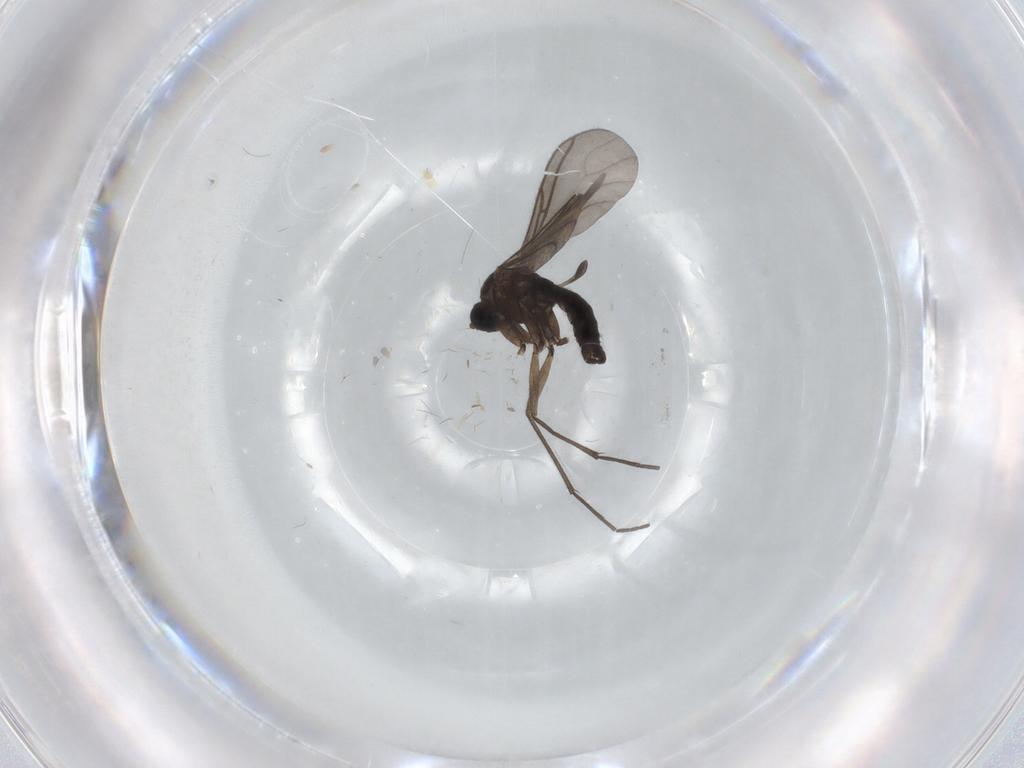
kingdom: Animalia
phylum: Arthropoda
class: Insecta
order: Diptera
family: Sciaridae
